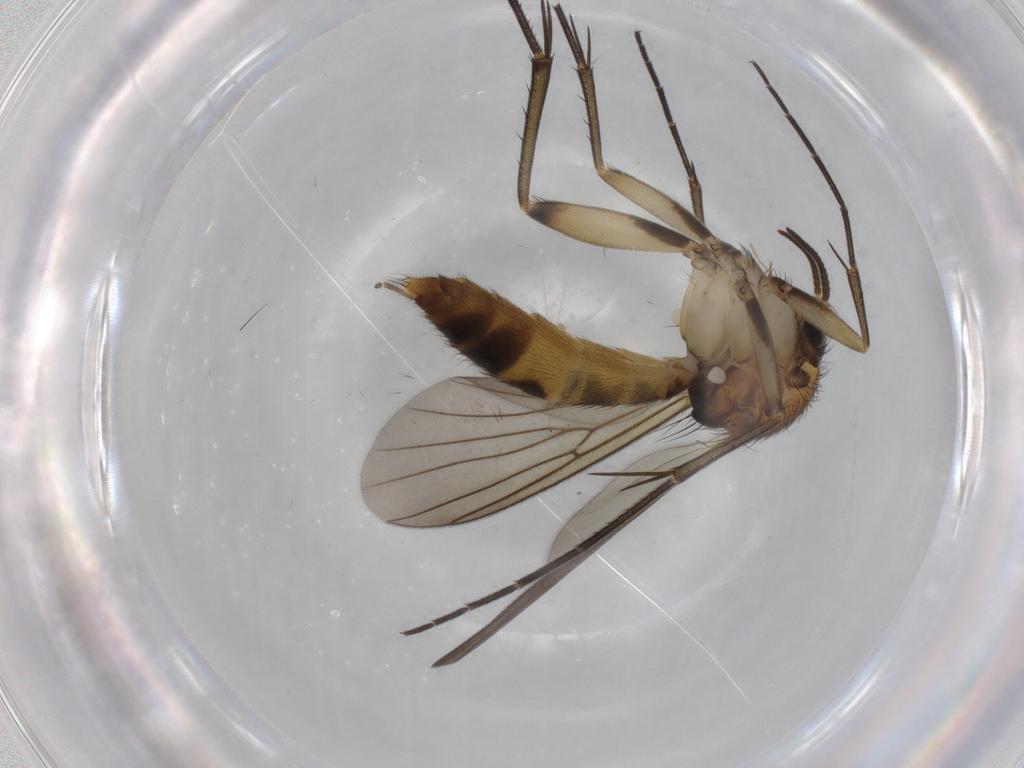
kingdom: Animalia
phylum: Arthropoda
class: Insecta
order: Diptera
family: Mycetophilidae
